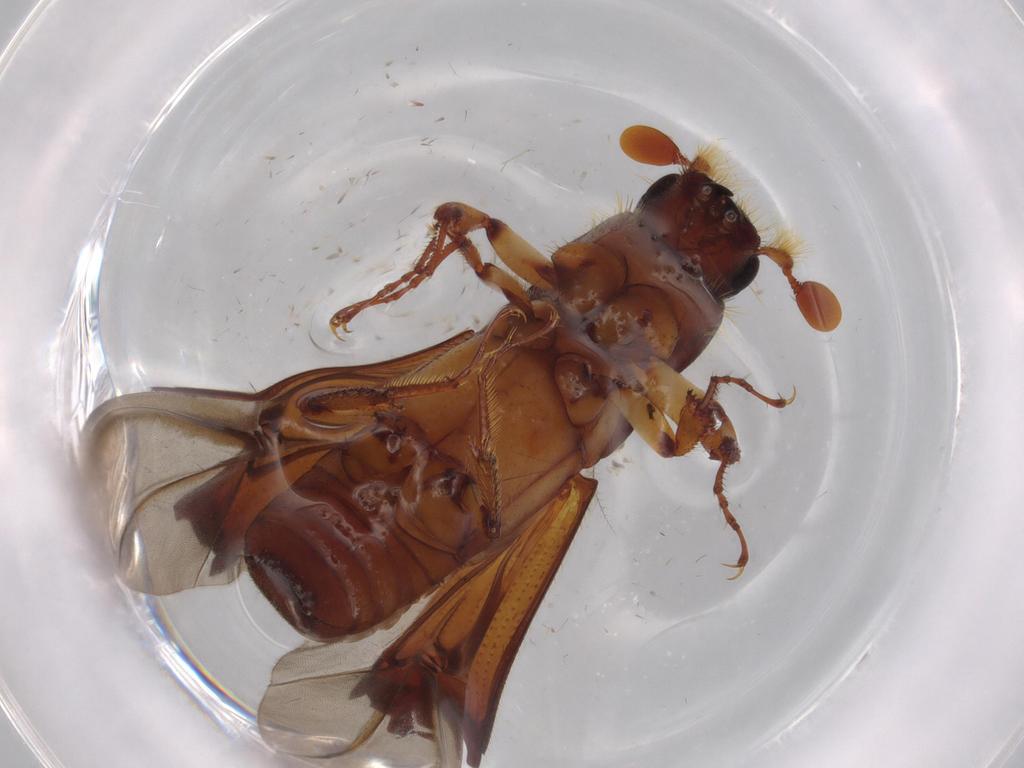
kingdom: Animalia
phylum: Arthropoda
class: Insecta
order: Coleoptera
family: Curculionidae
